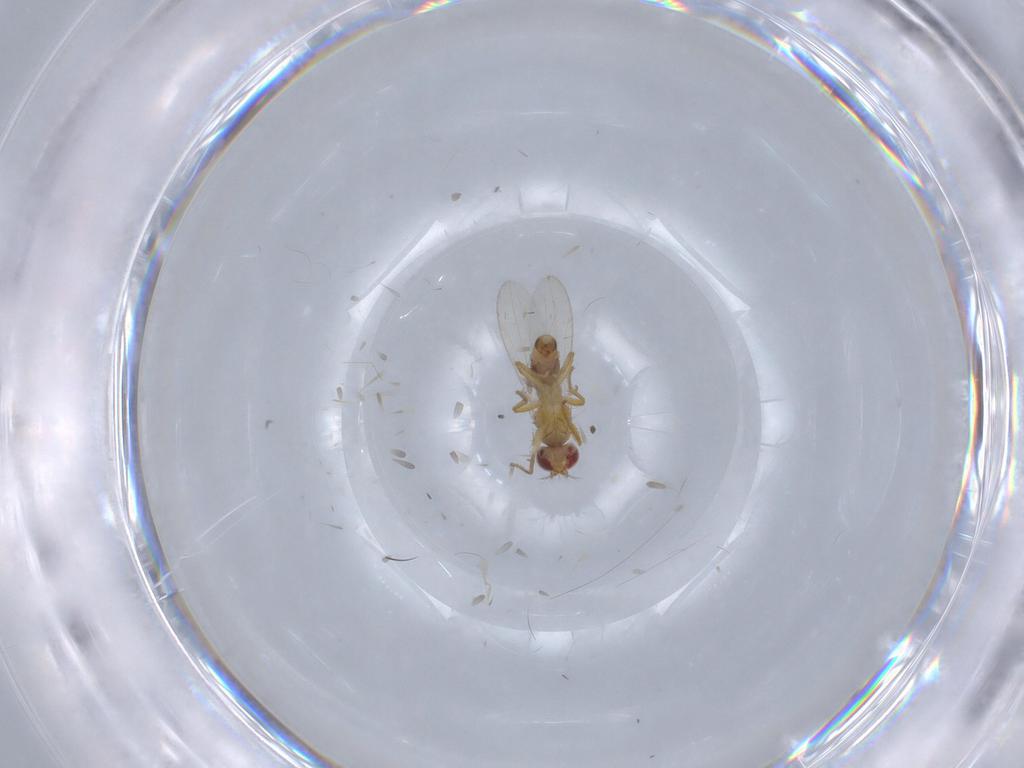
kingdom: Animalia
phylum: Arthropoda
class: Insecta
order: Diptera
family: Periscelididae
